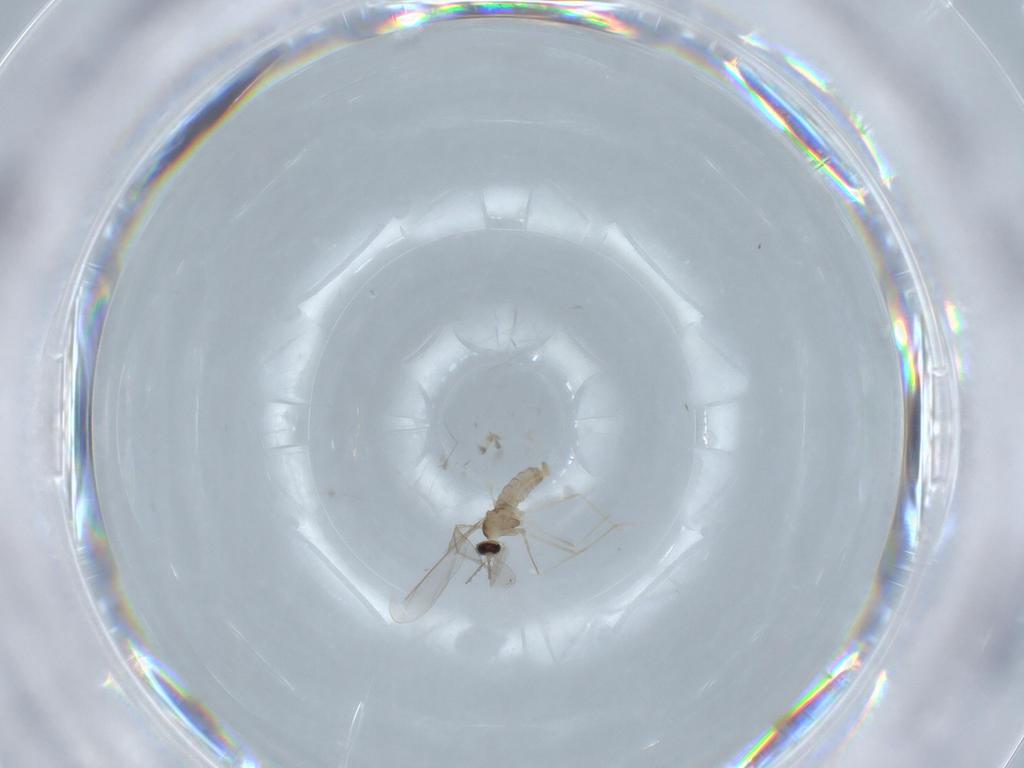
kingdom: Animalia
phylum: Arthropoda
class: Insecta
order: Diptera
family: Cecidomyiidae
